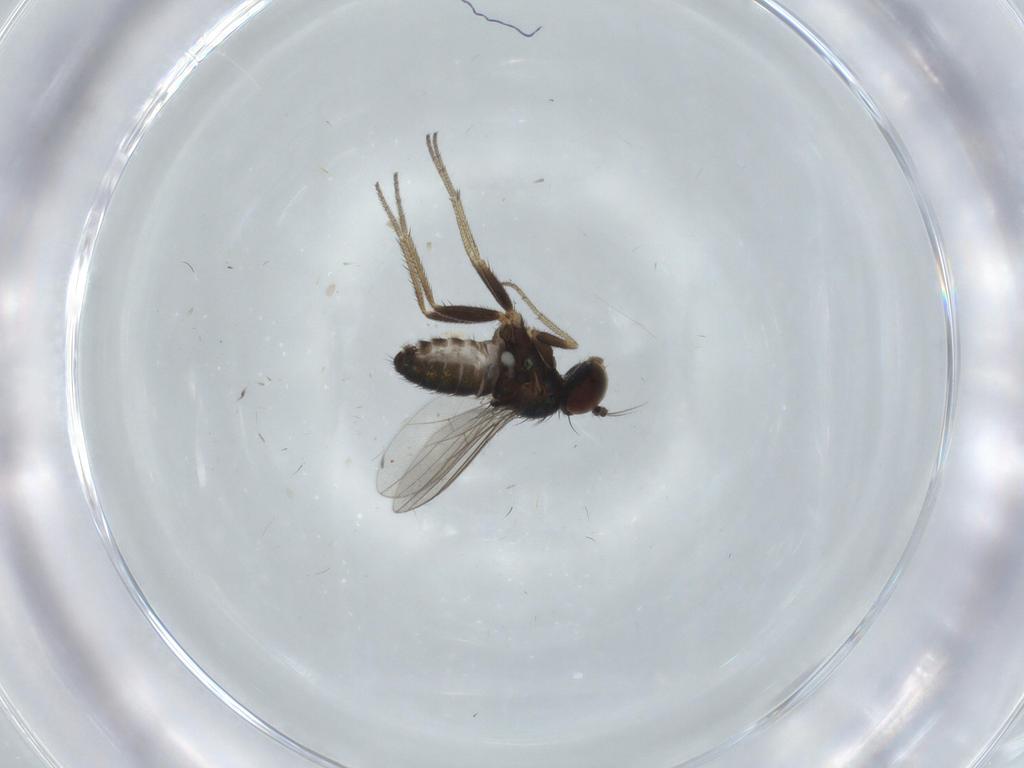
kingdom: Animalia
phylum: Arthropoda
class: Insecta
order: Diptera
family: Dolichopodidae
